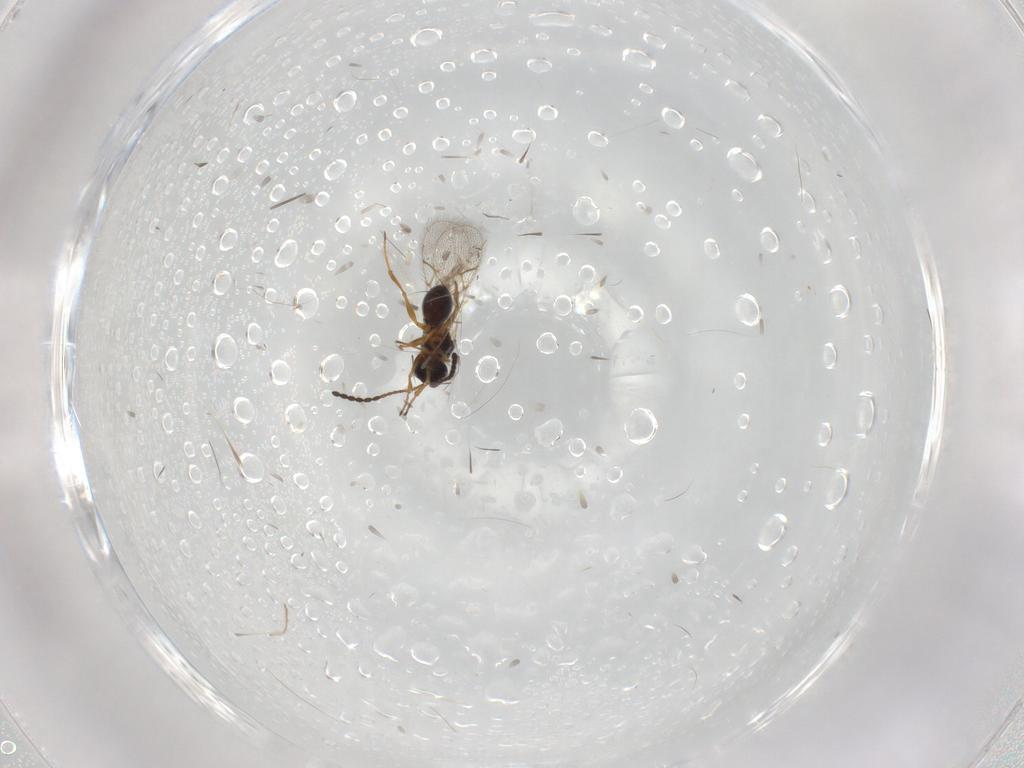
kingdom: Animalia
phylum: Arthropoda
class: Insecta
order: Hymenoptera
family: Figitidae
